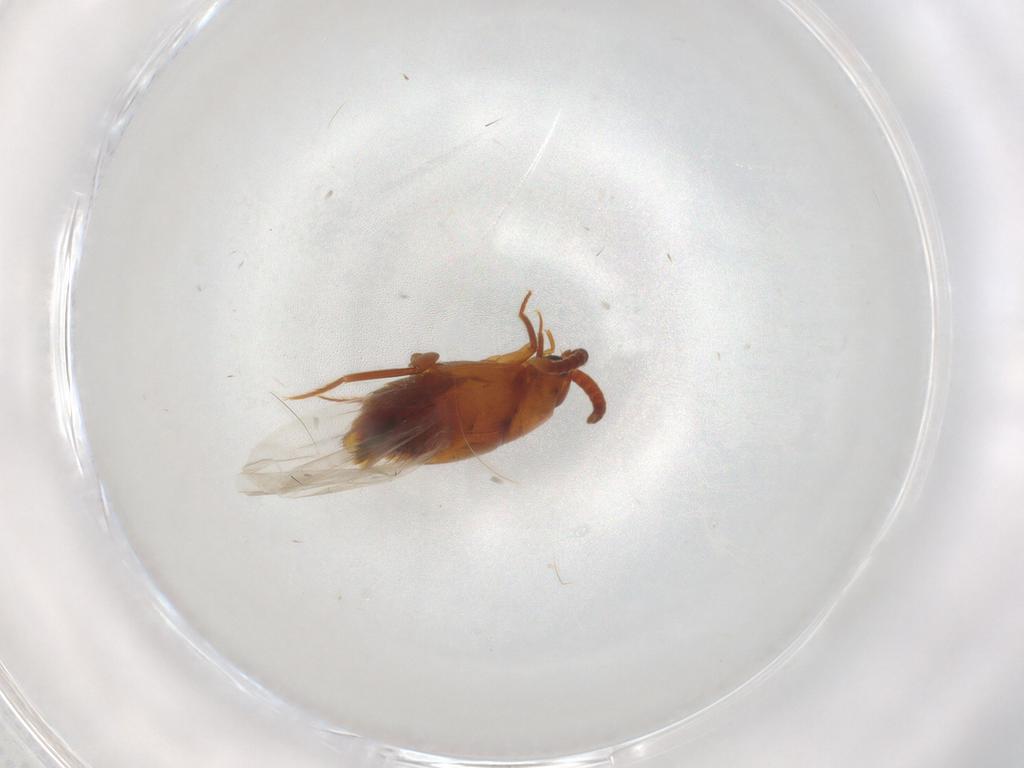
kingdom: Animalia
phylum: Arthropoda
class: Insecta
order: Coleoptera
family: Staphylinidae
